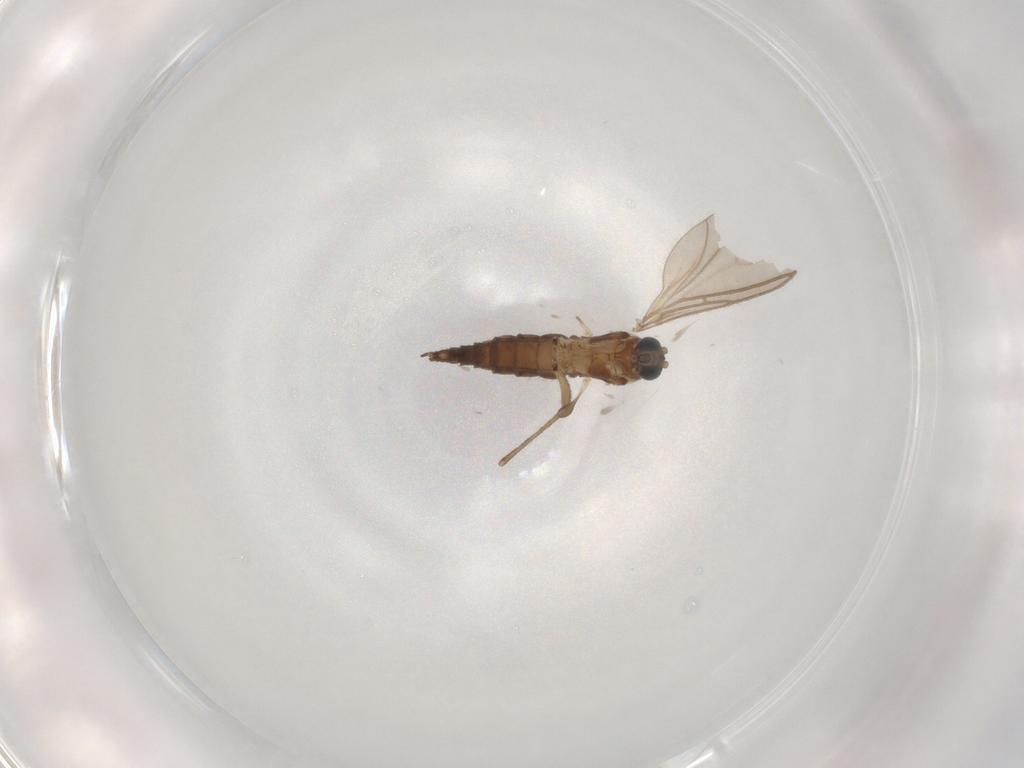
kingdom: Animalia
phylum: Arthropoda
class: Insecta
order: Diptera
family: Sciaridae
